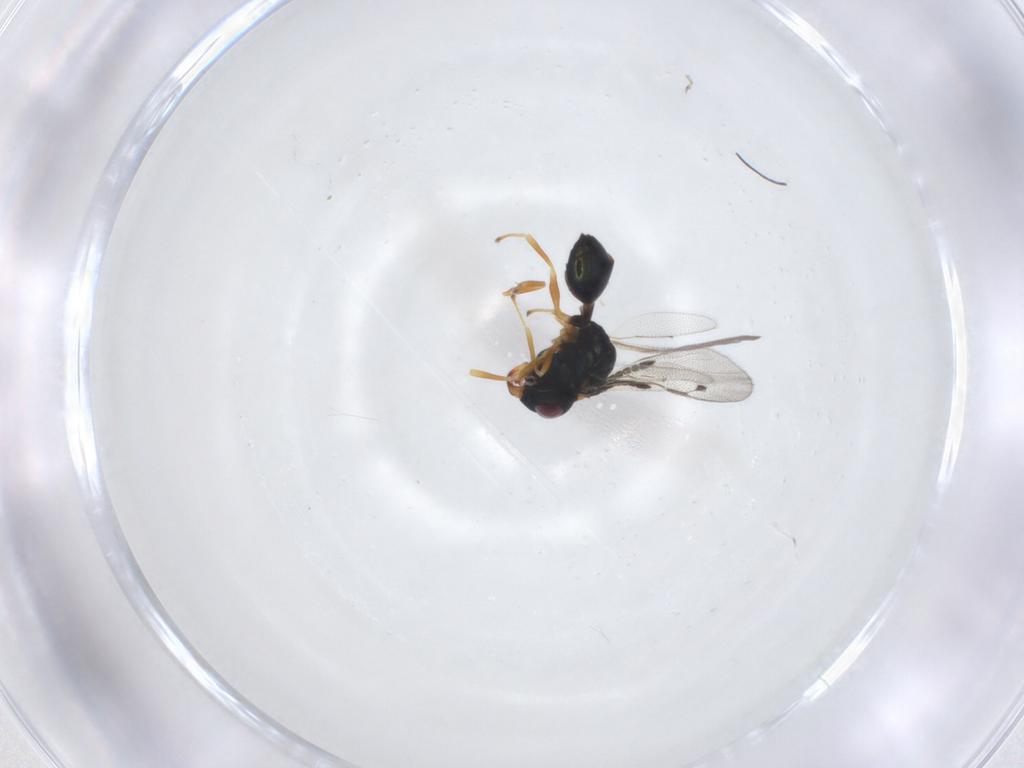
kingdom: Animalia
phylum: Arthropoda
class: Insecta
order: Hymenoptera
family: Pteromalidae
